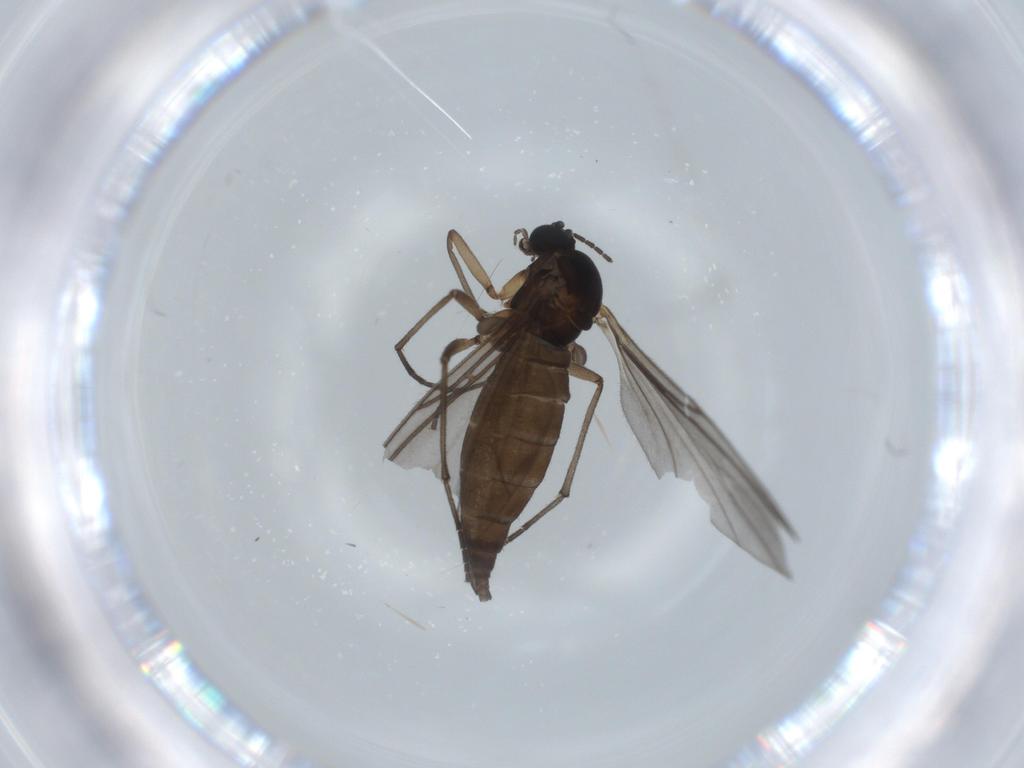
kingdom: Animalia
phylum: Arthropoda
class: Insecta
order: Diptera
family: Sciaridae
